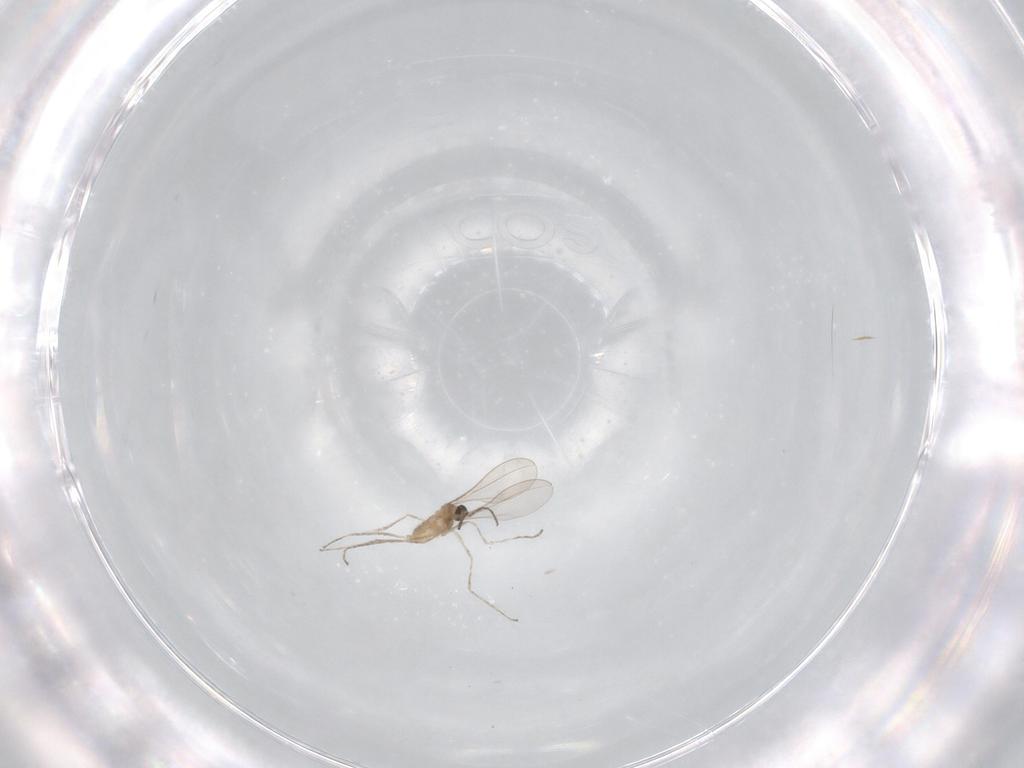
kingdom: Animalia
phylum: Arthropoda
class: Insecta
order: Diptera
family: Cecidomyiidae
